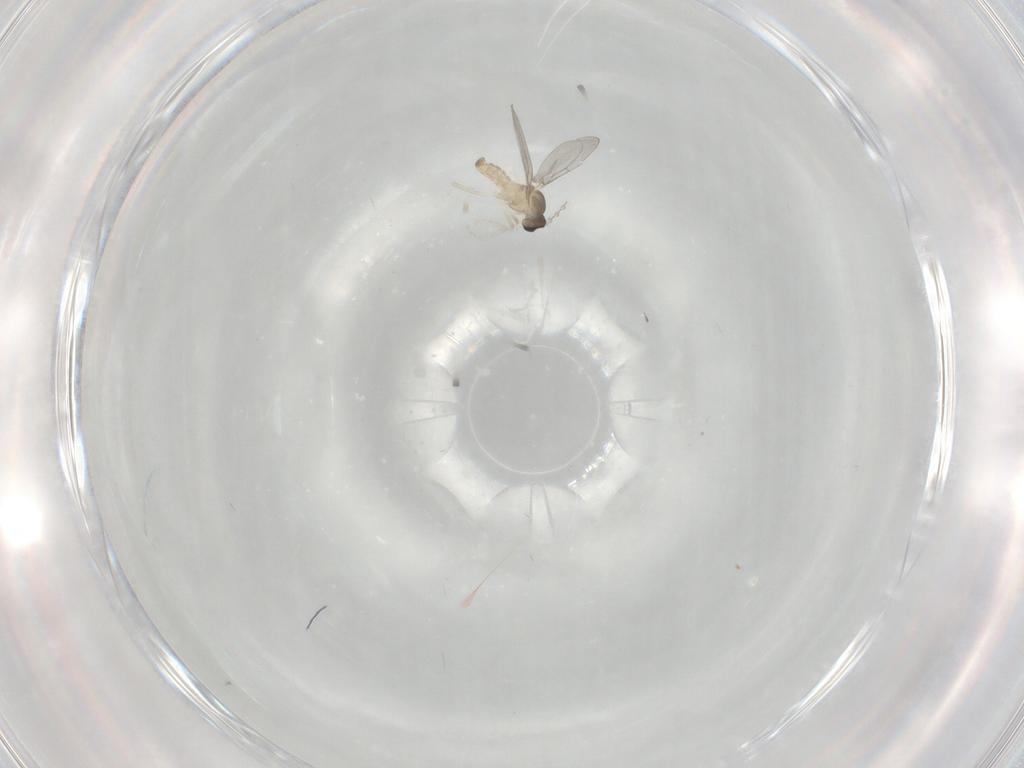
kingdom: Animalia
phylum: Arthropoda
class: Insecta
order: Diptera
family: Cecidomyiidae
